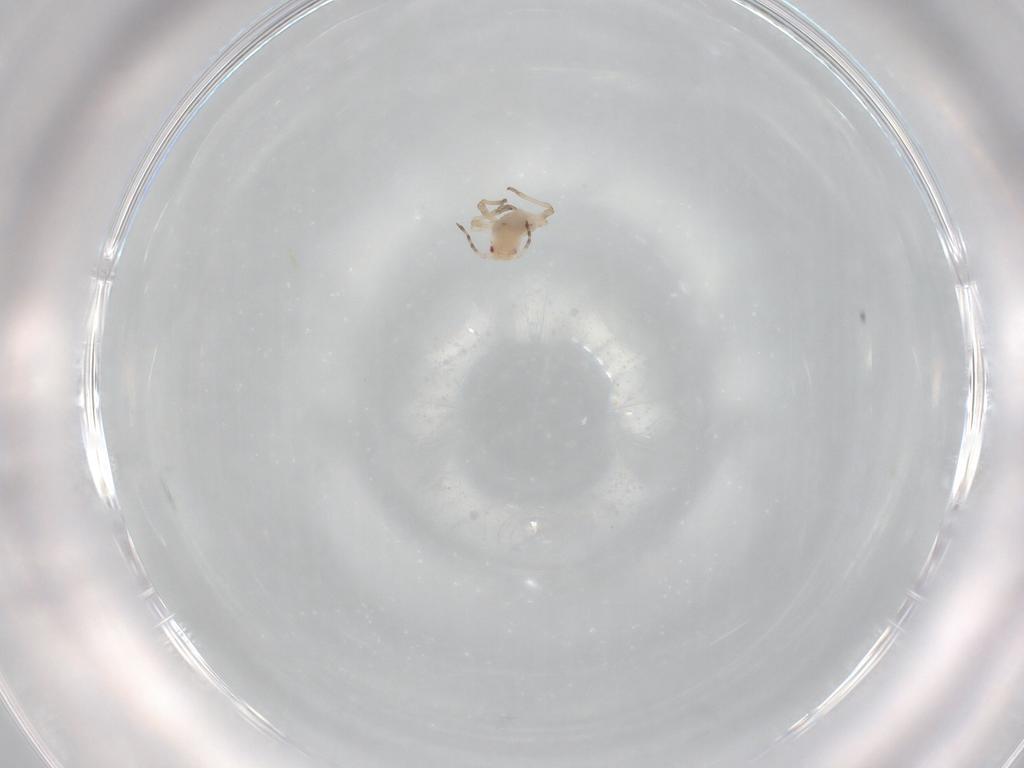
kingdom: Animalia
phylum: Arthropoda
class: Insecta
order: Hemiptera
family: Aphididae
